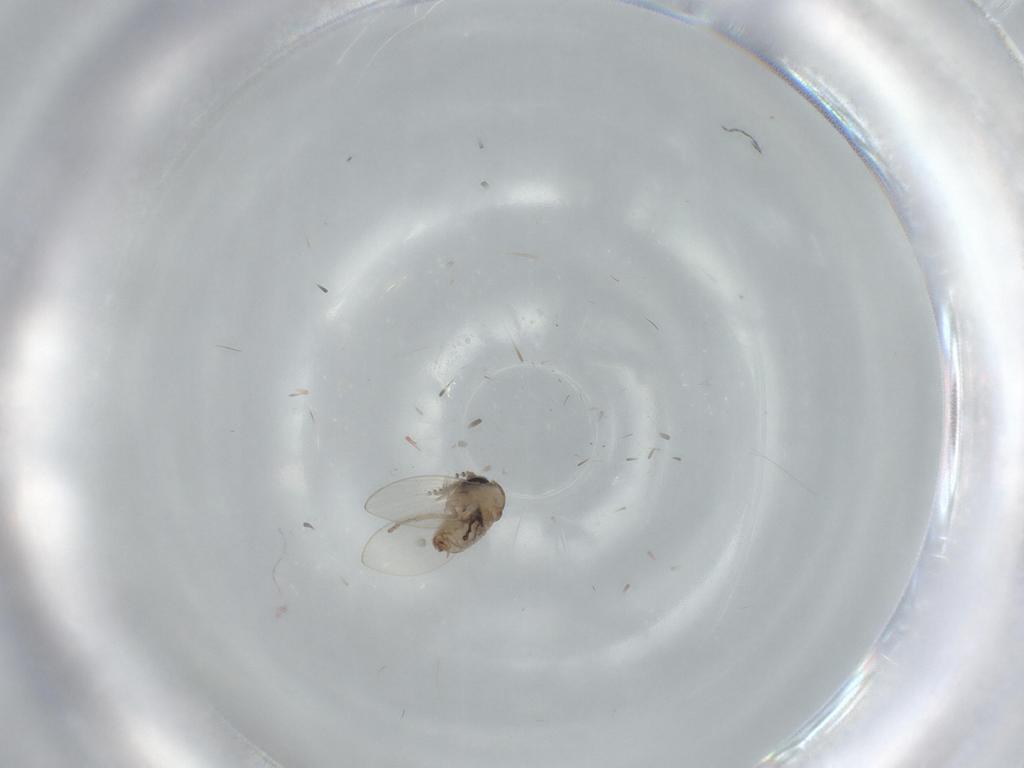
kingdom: Animalia
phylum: Arthropoda
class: Insecta
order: Diptera
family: Psychodidae
